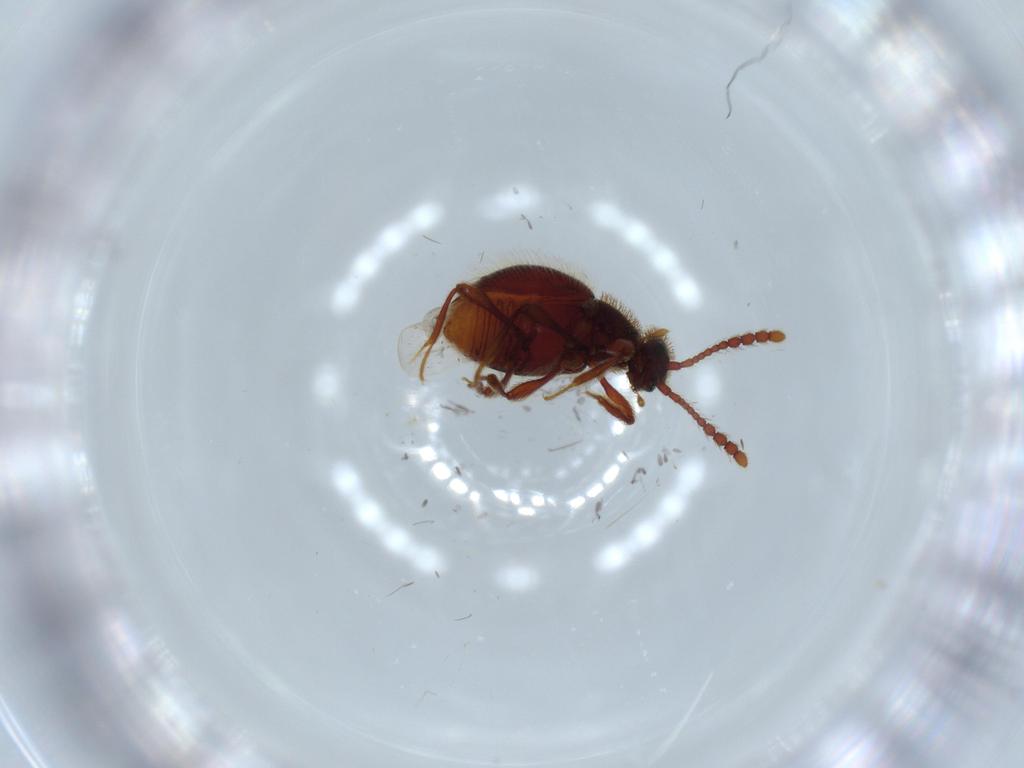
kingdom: Animalia
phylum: Arthropoda
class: Insecta
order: Coleoptera
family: Staphylinidae
